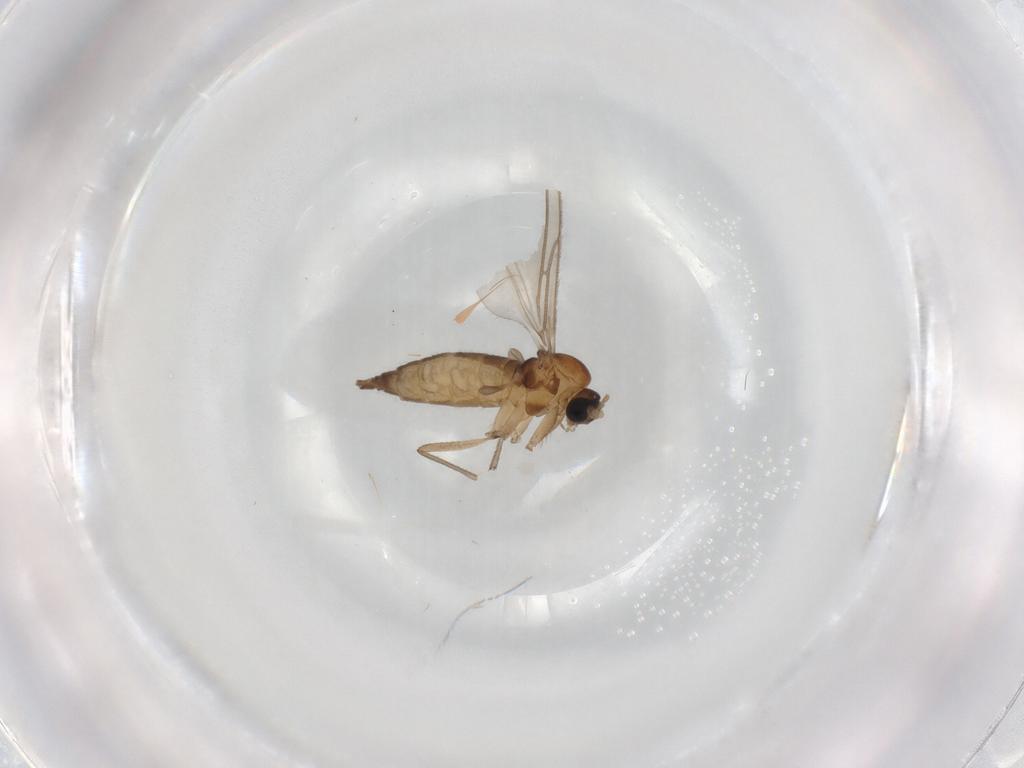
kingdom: Animalia
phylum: Arthropoda
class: Insecta
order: Diptera
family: Sciaridae
